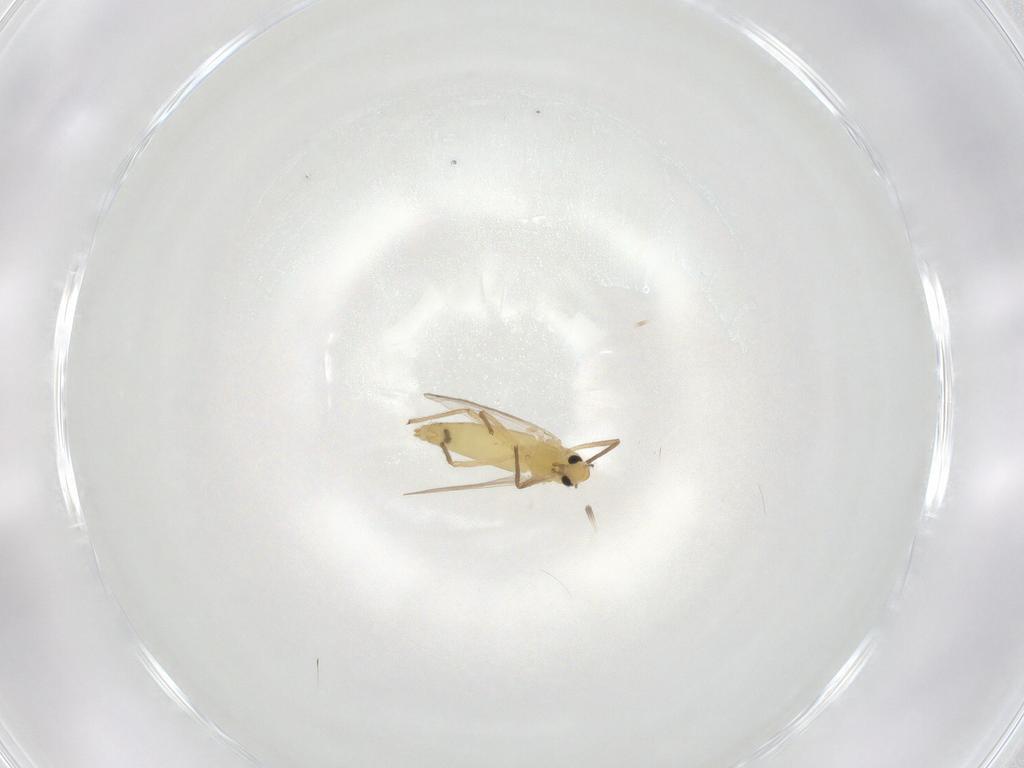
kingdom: Animalia
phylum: Arthropoda
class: Insecta
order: Diptera
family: Chironomidae
